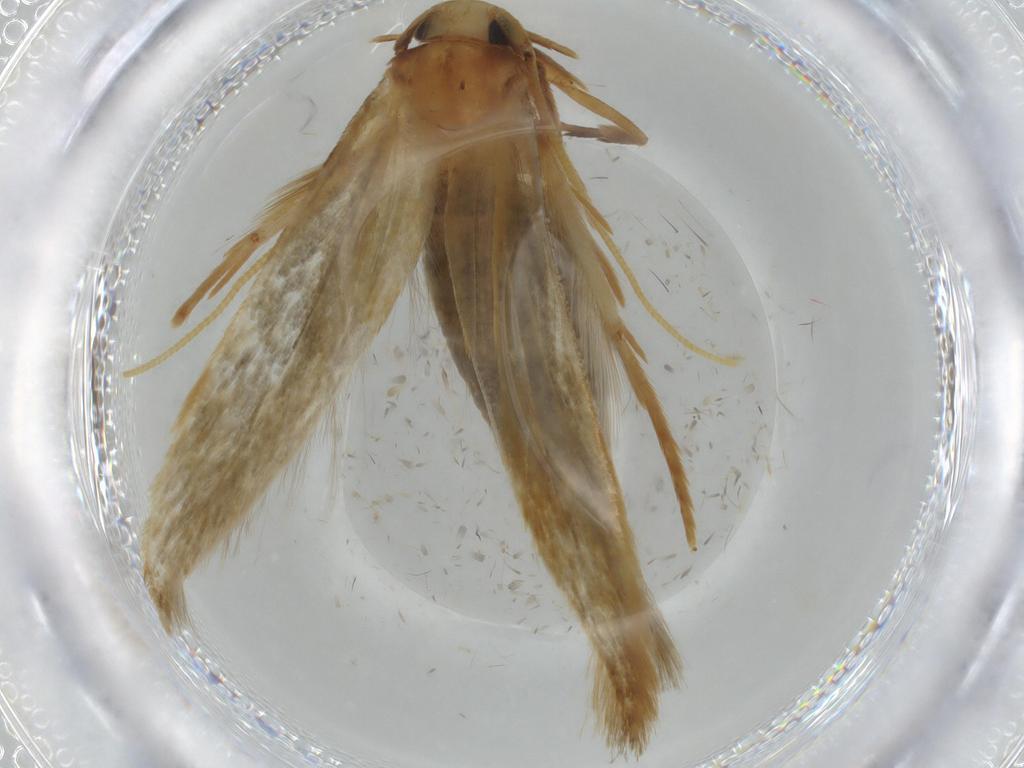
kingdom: Animalia
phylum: Arthropoda
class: Insecta
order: Lepidoptera
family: Tineidae
